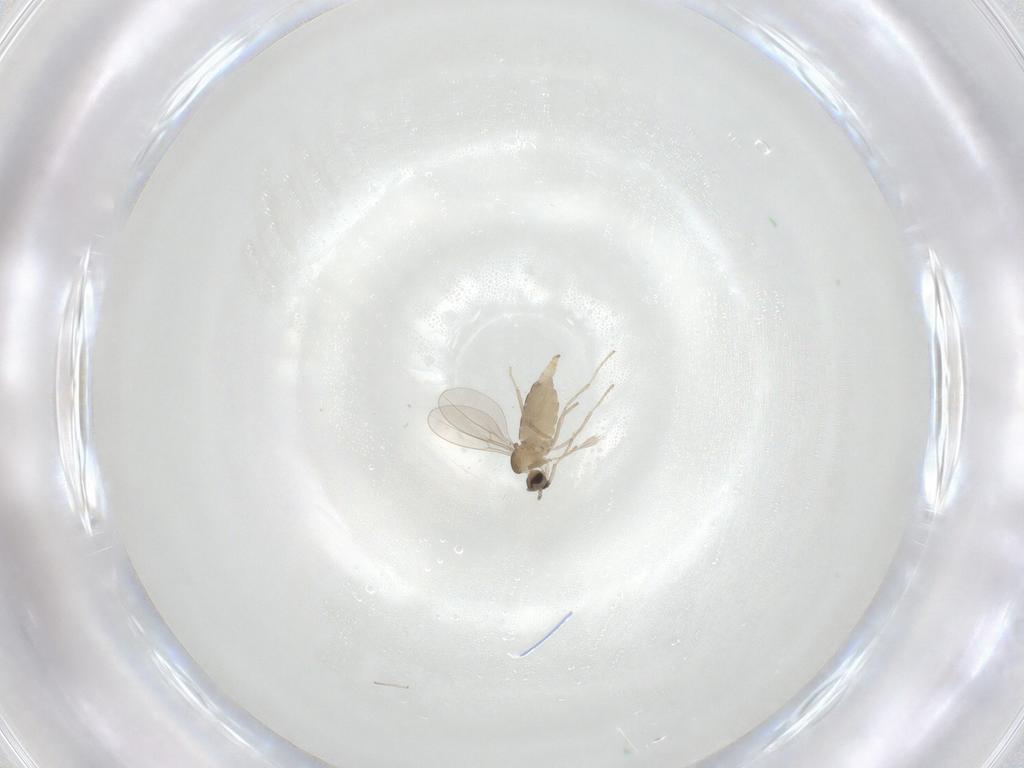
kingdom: Animalia
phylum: Arthropoda
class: Insecta
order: Diptera
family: Cecidomyiidae
